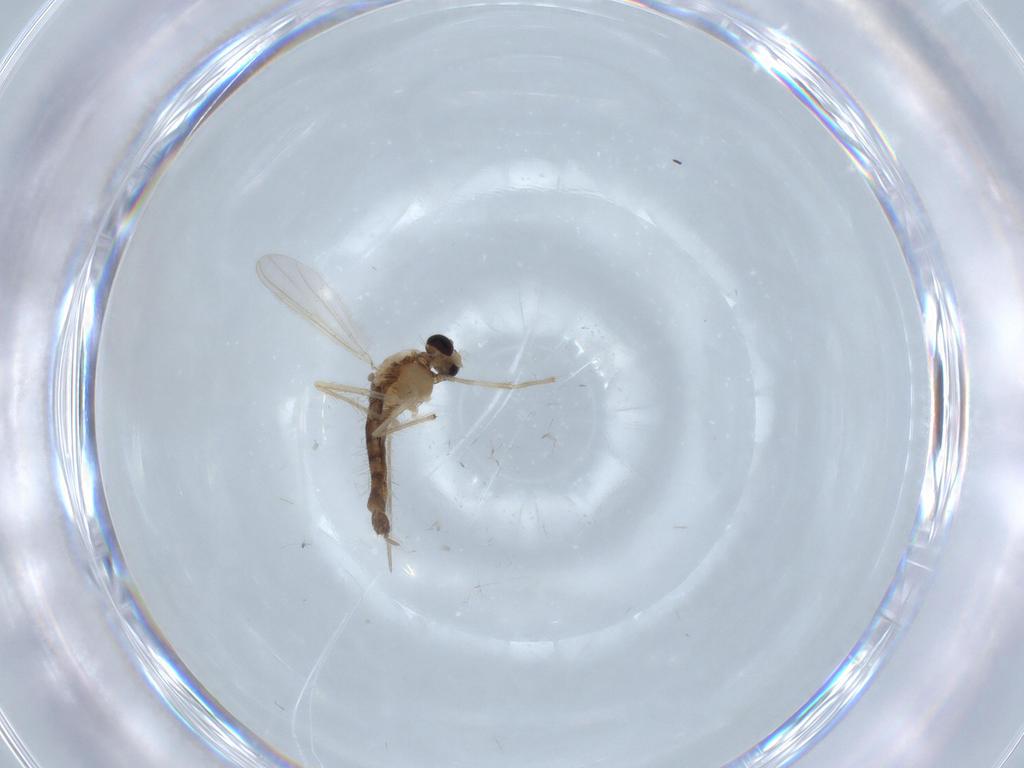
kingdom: Animalia
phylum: Arthropoda
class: Insecta
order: Diptera
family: Chironomidae
